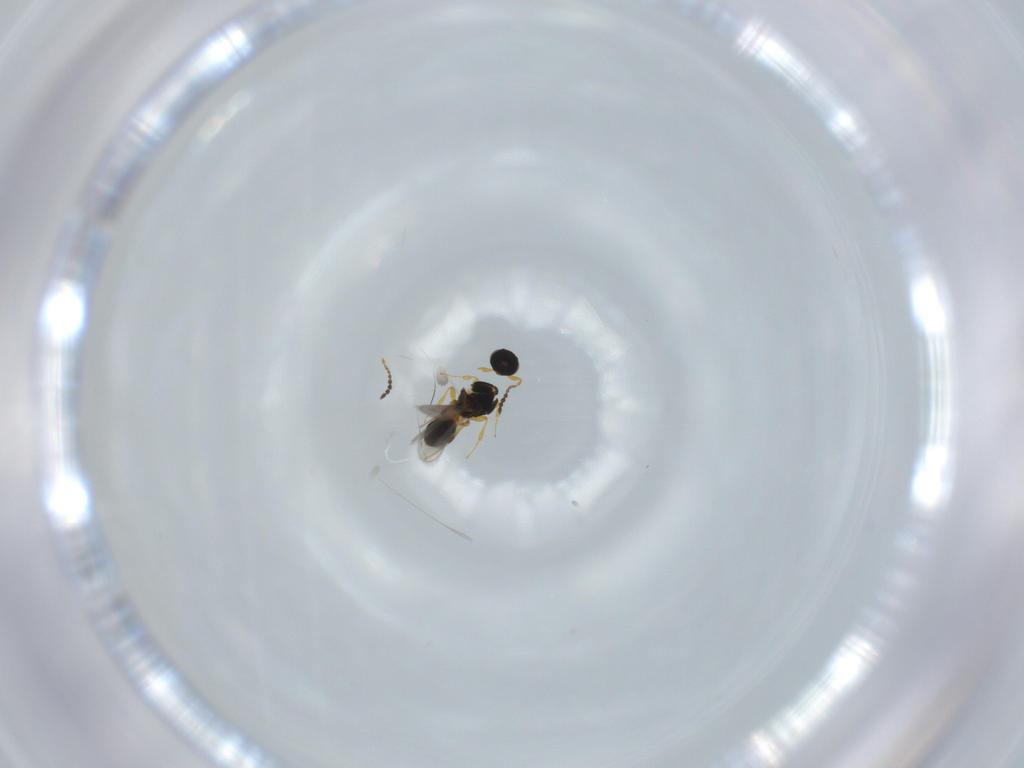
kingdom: Animalia
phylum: Arthropoda
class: Insecta
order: Hymenoptera
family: Platygastridae
